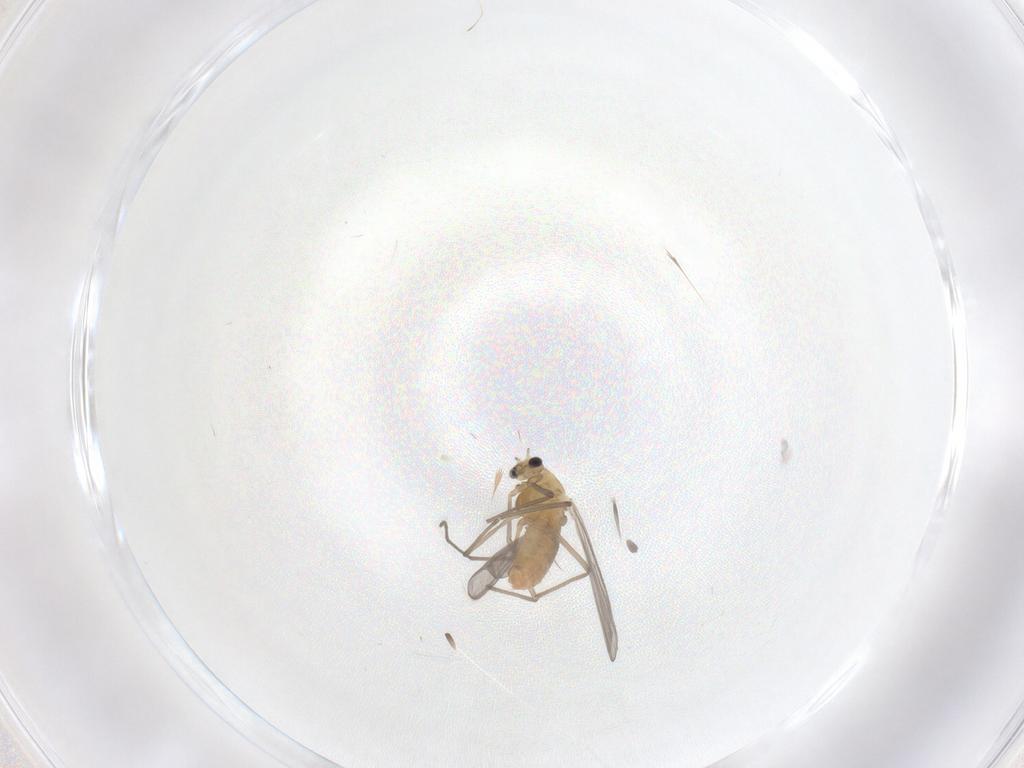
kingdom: Animalia
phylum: Arthropoda
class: Insecta
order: Diptera
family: Chironomidae
